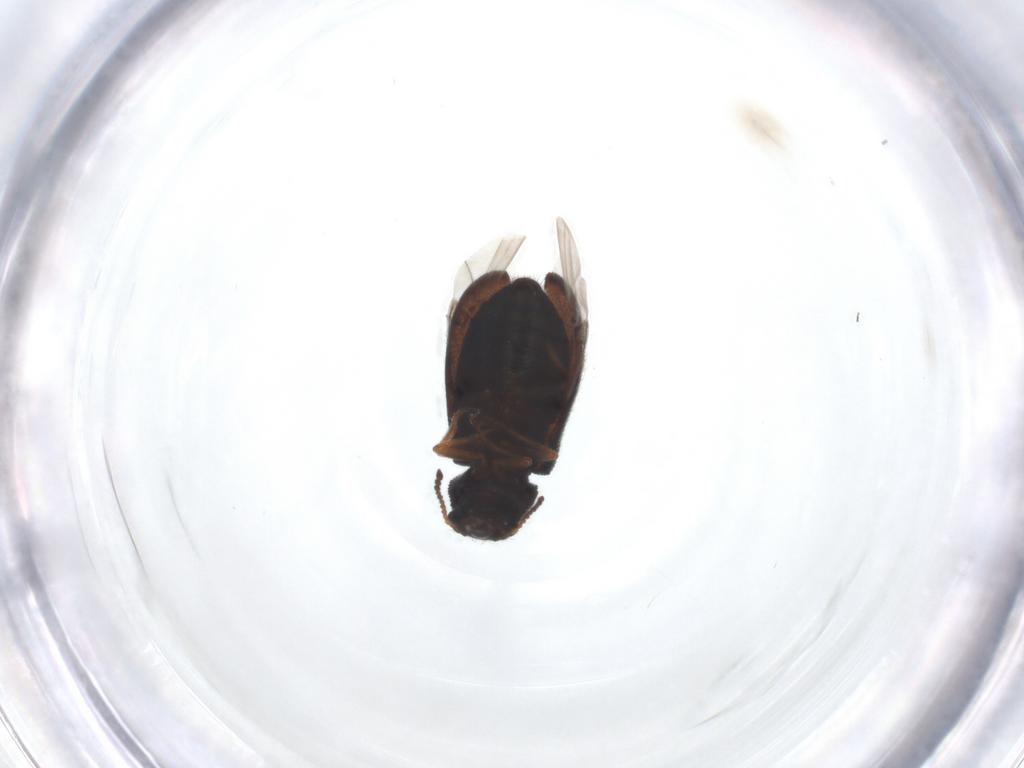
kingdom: Animalia
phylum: Arthropoda
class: Insecta
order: Coleoptera
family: Melyridae
